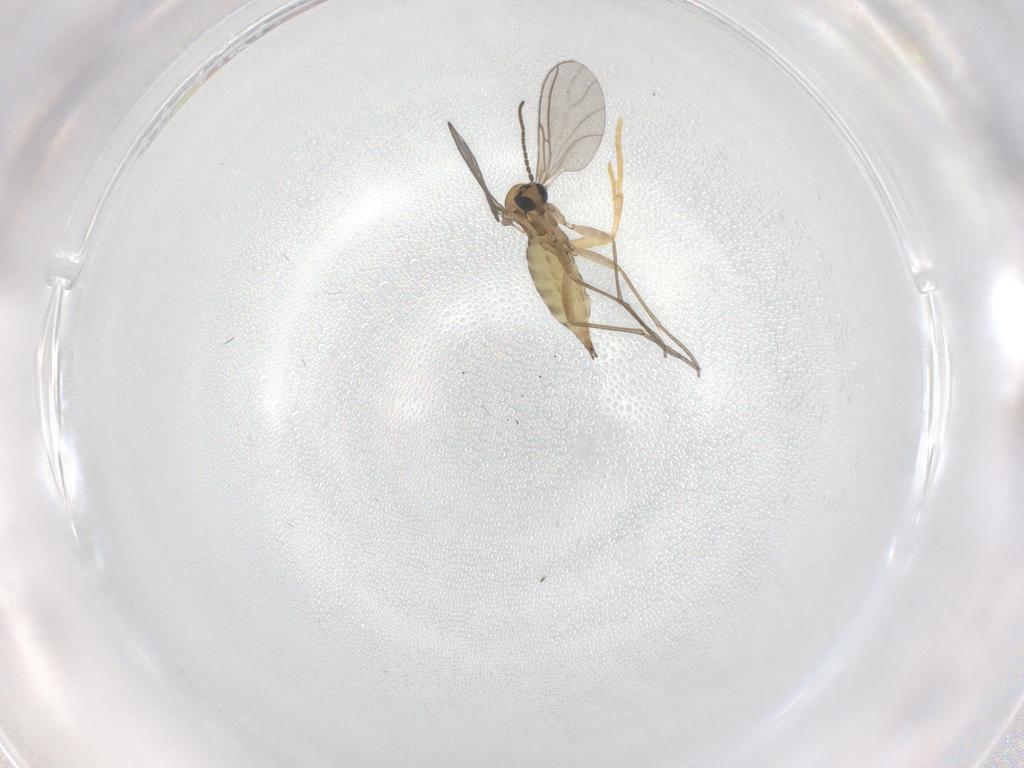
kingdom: Animalia
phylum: Arthropoda
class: Insecta
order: Diptera
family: Sciaridae
